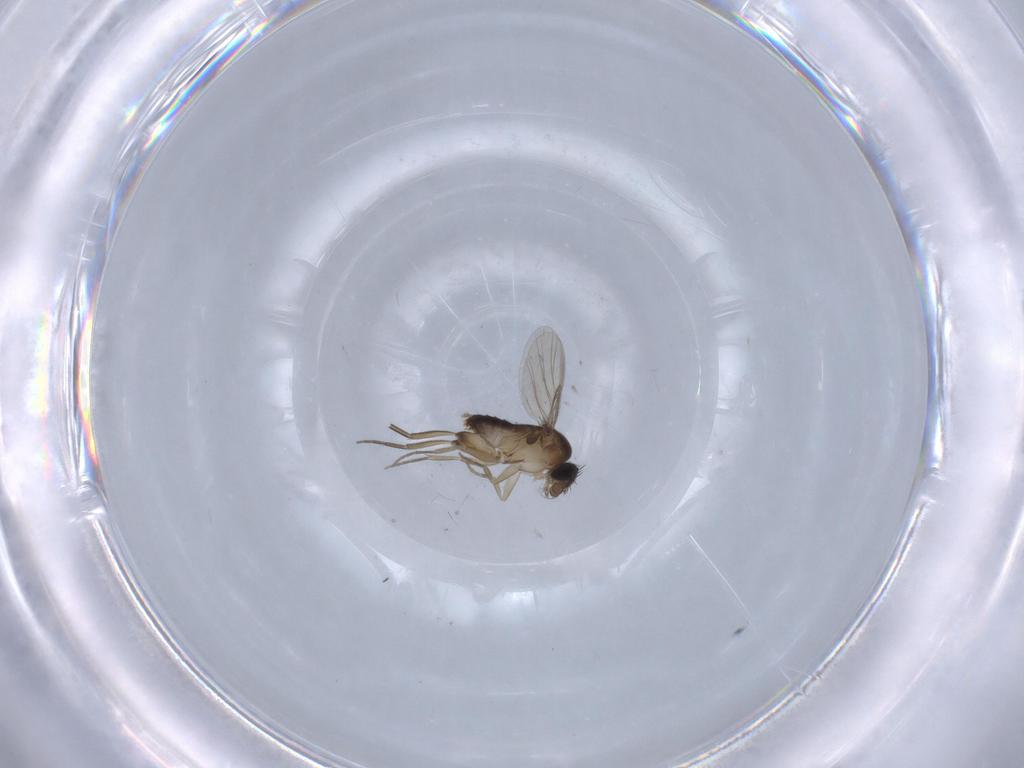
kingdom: Animalia
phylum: Arthropoda
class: Insecta
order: Diptera
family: Chironomidae
